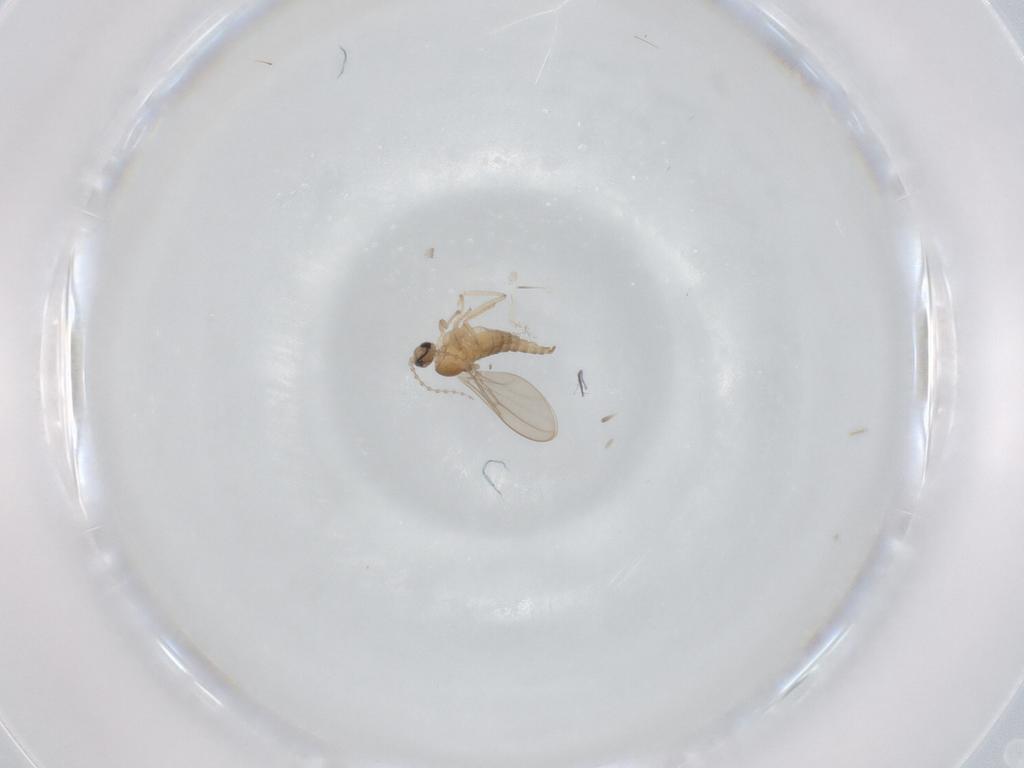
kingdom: Animalia
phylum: Arthropoda
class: Insecta
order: Diptera
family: Cecidomyiidae
